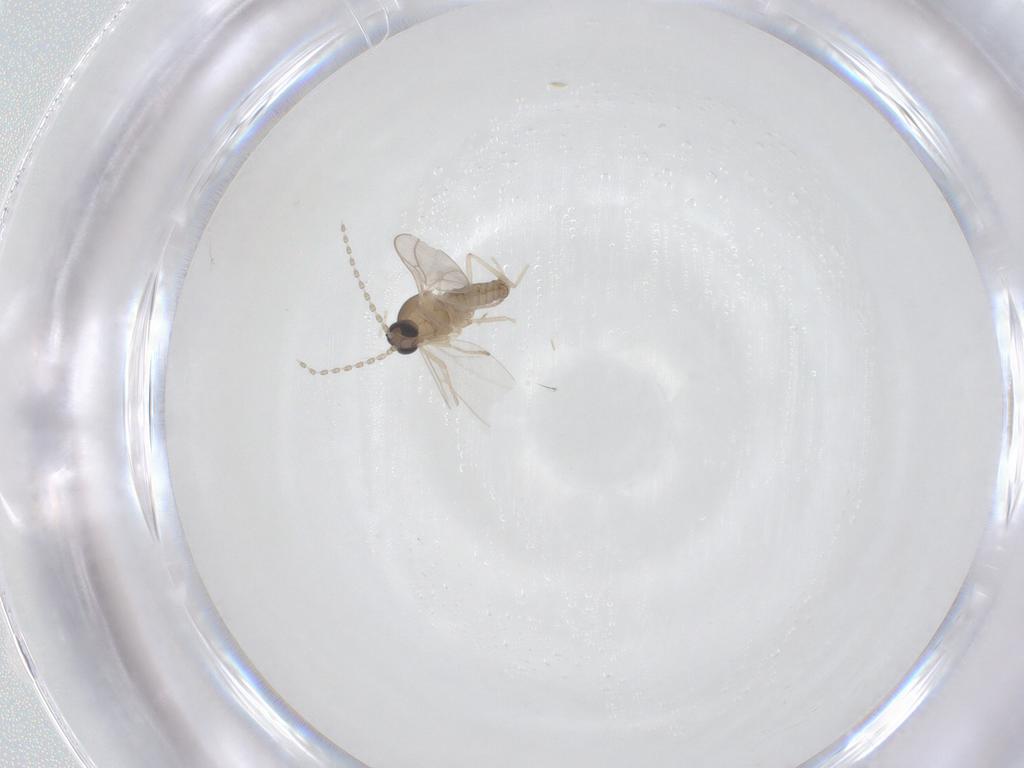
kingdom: Animalia
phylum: Arthropoda
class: Insecta
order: Diptera
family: Cecidomyiidae
